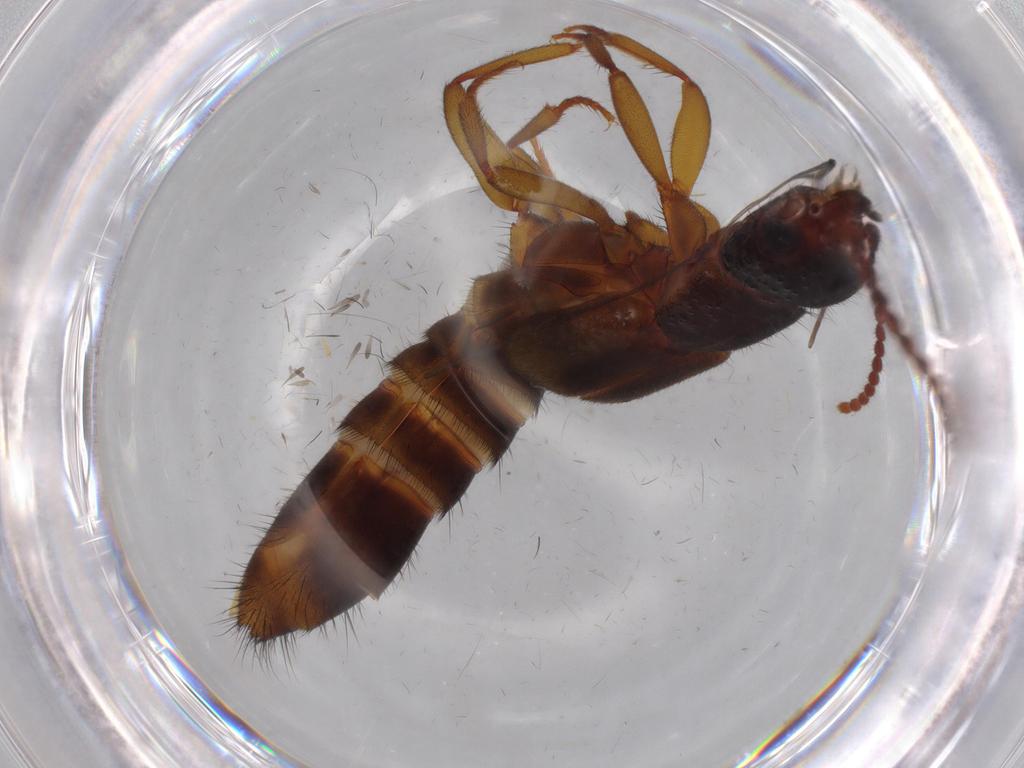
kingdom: Animalia
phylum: Arthropoda
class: Insecta
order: Coleoptera
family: Staphylinidae
